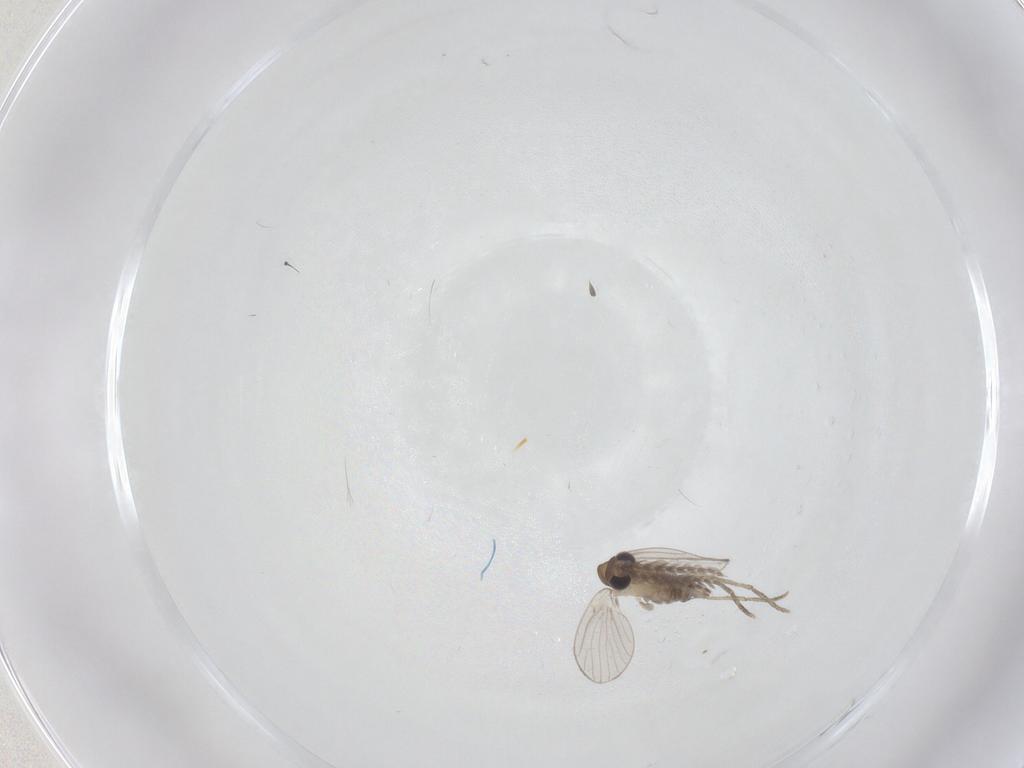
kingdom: Animalia
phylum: Arthropoda
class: Insecta
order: Diptera
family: Psychodidae
